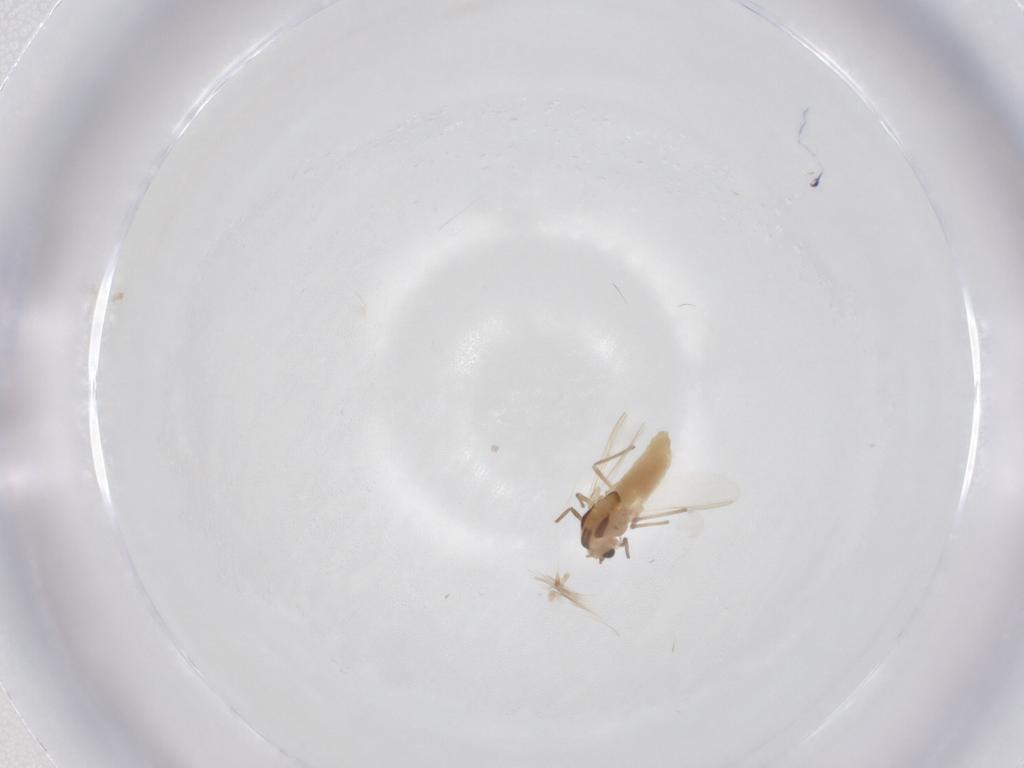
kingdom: Animalia
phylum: Arthropoda
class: Insecta
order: Diptera
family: Chironomidae
